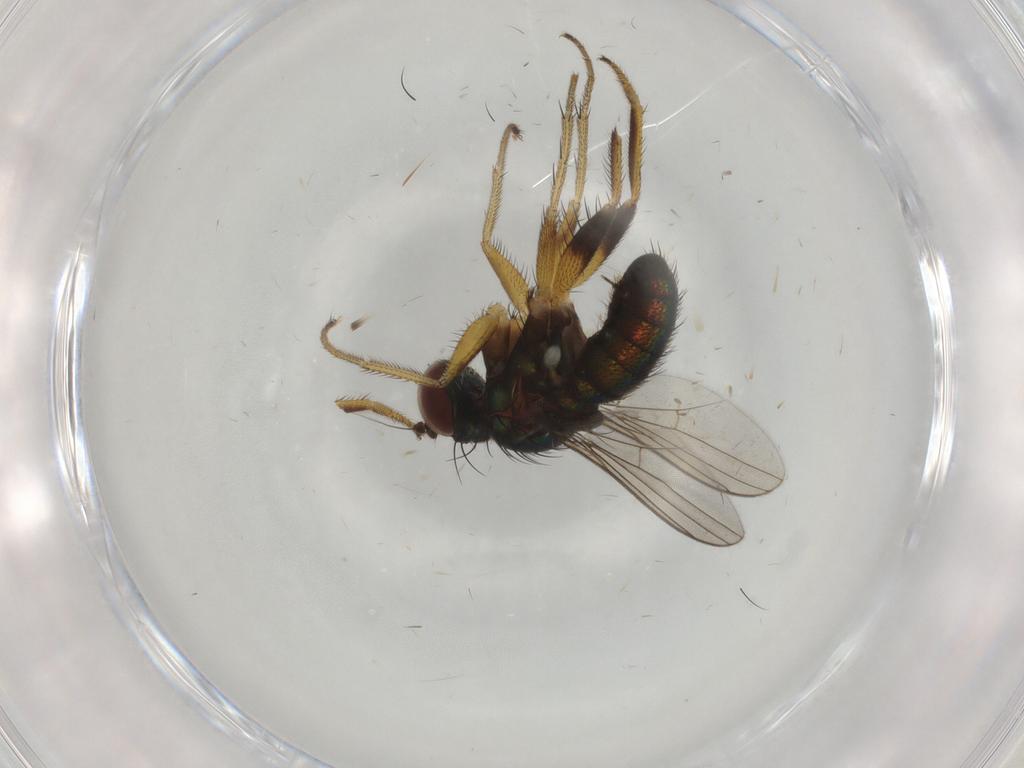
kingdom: Animalia
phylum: Arthropoda
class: Insecta
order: Diptera
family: Dolichopodidae
